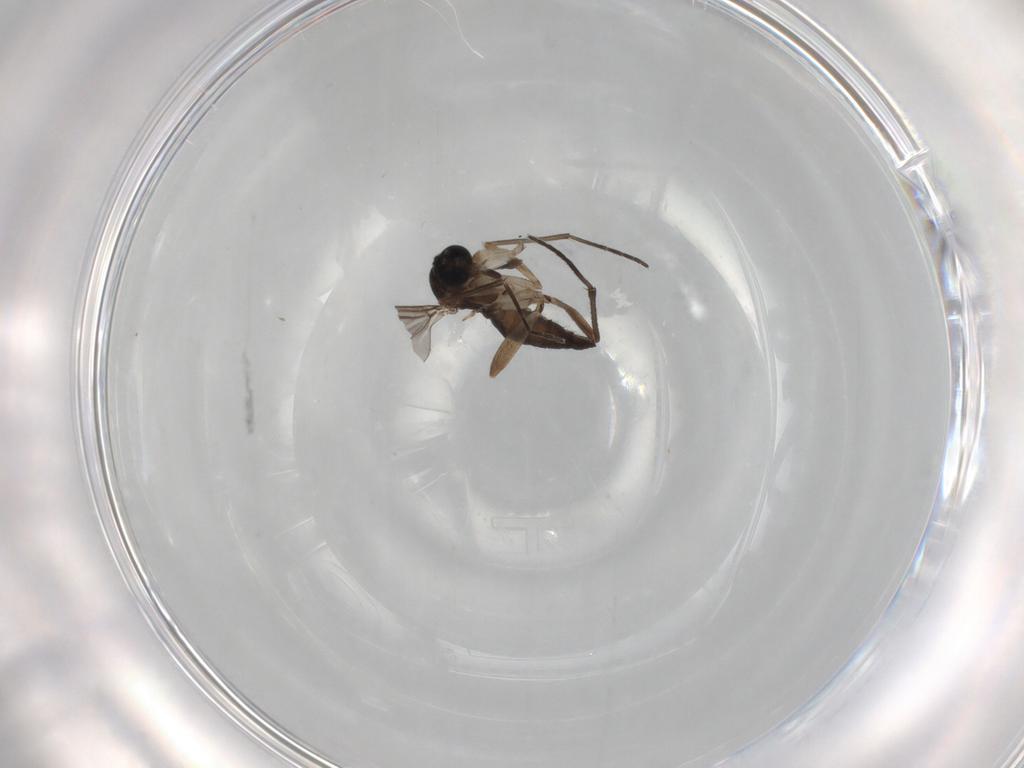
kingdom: Animalia
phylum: Arthropoda
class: Insecta
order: Diptera
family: Sciaridae
